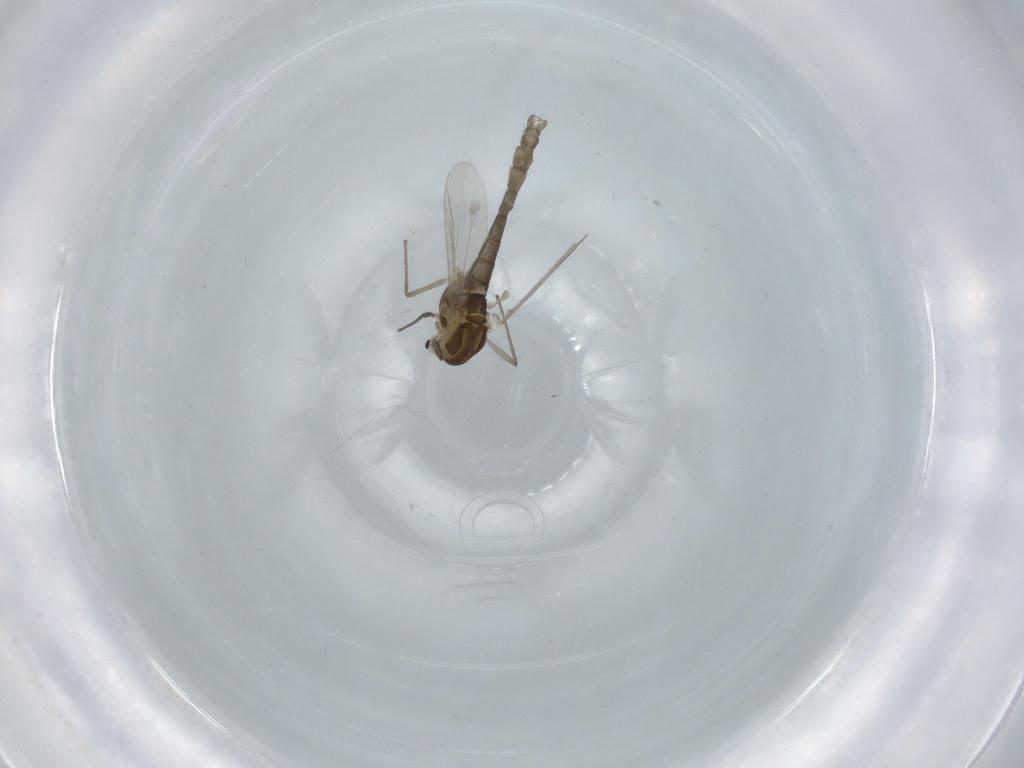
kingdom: Animalia
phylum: Arthropoda
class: Insecta
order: Diptera
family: Chironomidae
